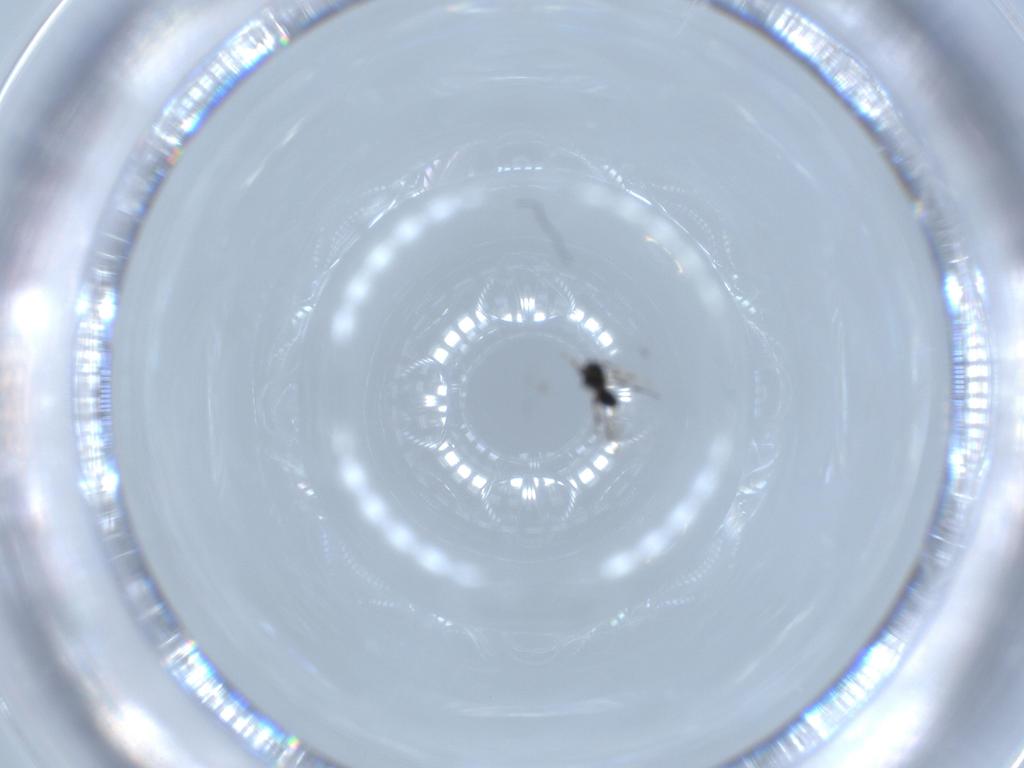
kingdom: Animalia
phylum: Arthropoda
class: Insecta
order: Hymenoptera
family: Platygastridae
